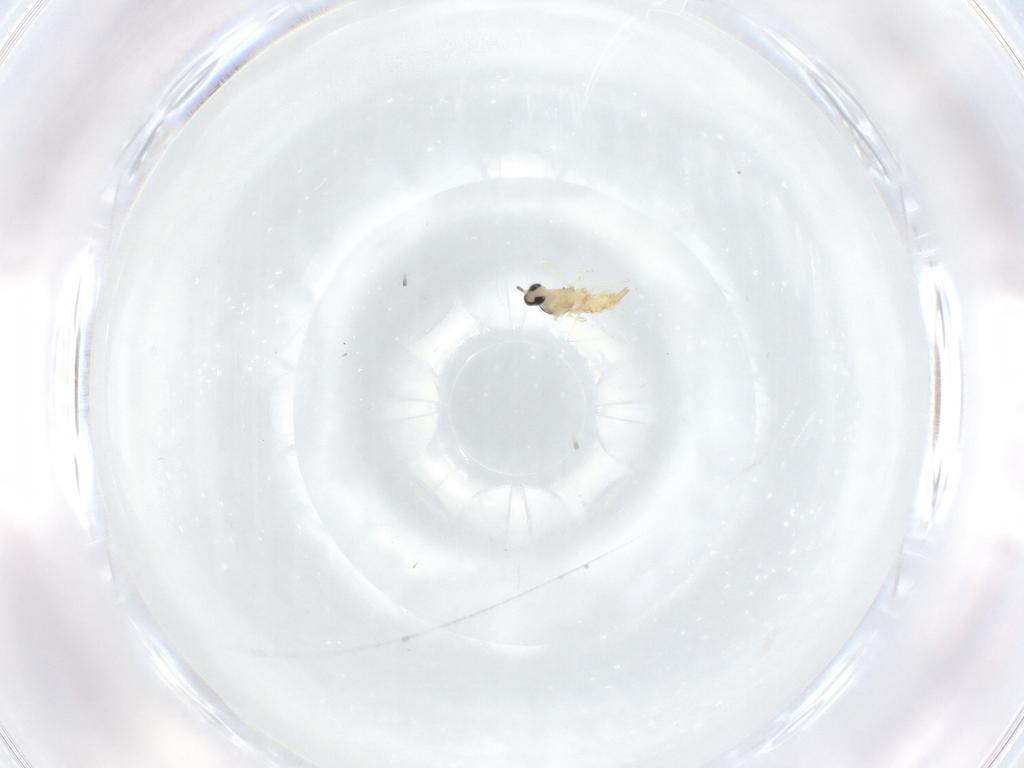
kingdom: Animalia
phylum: Arthropoda
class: Insecta
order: Diptera
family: Psychodidae
